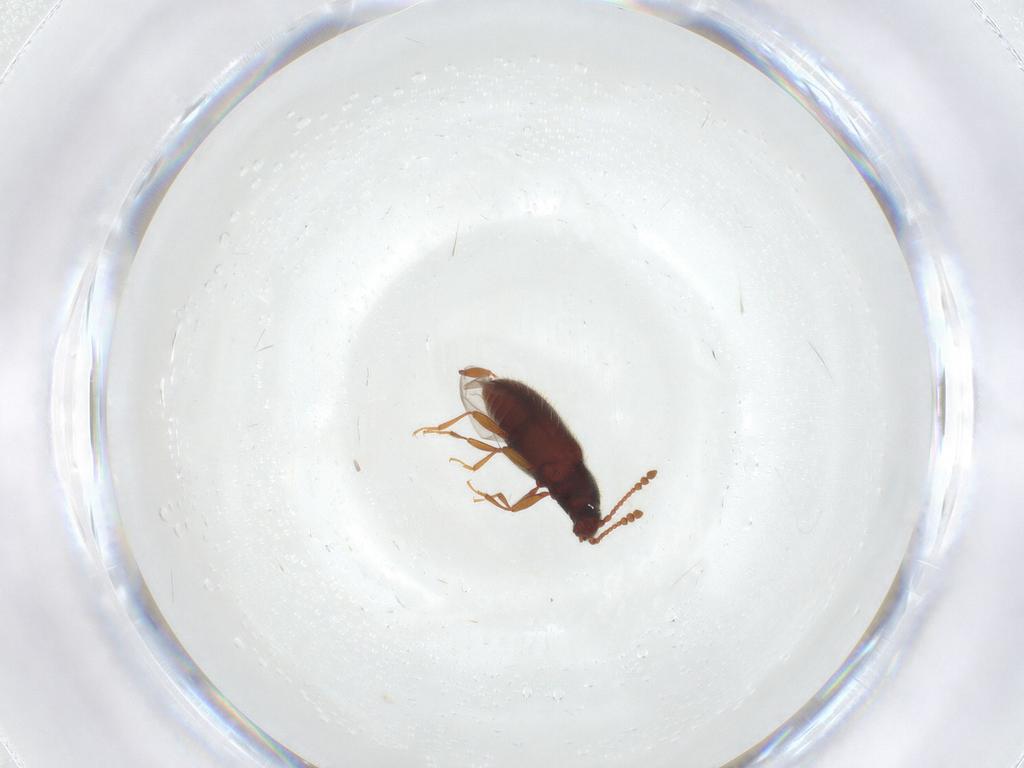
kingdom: Animalia
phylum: Arthropoda
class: Insecta
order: Coleoptera
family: Cryptophagidae
